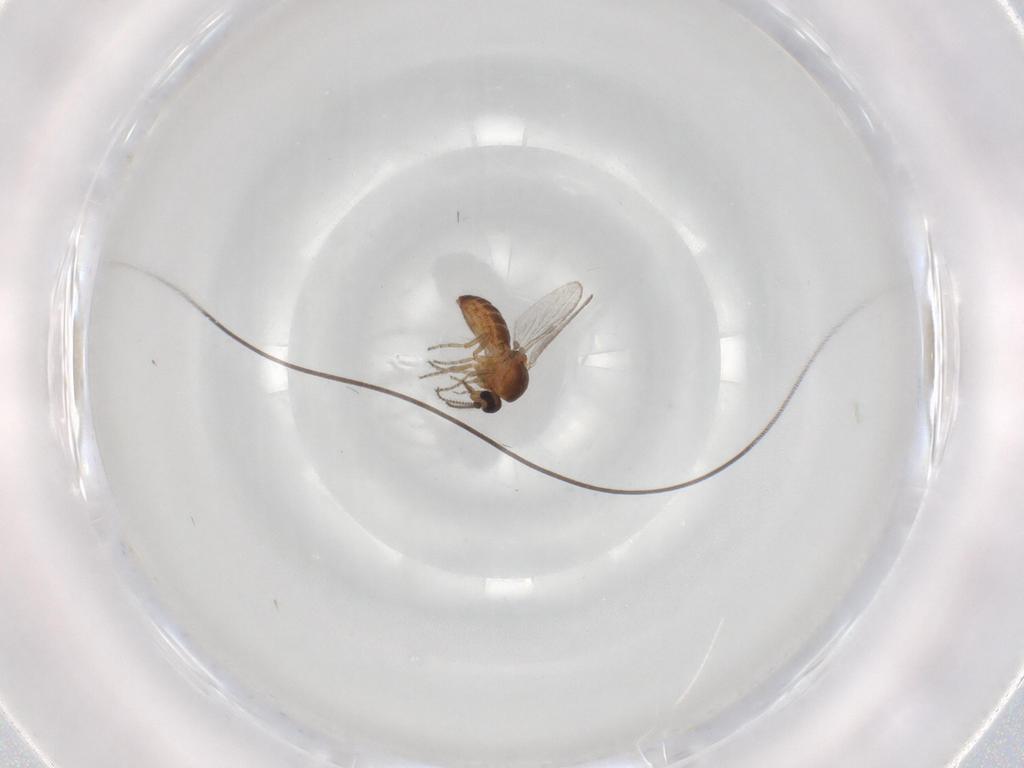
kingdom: Animalia
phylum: Arthropoda
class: Insecta
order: Diptera
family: Ceratopogonidae
